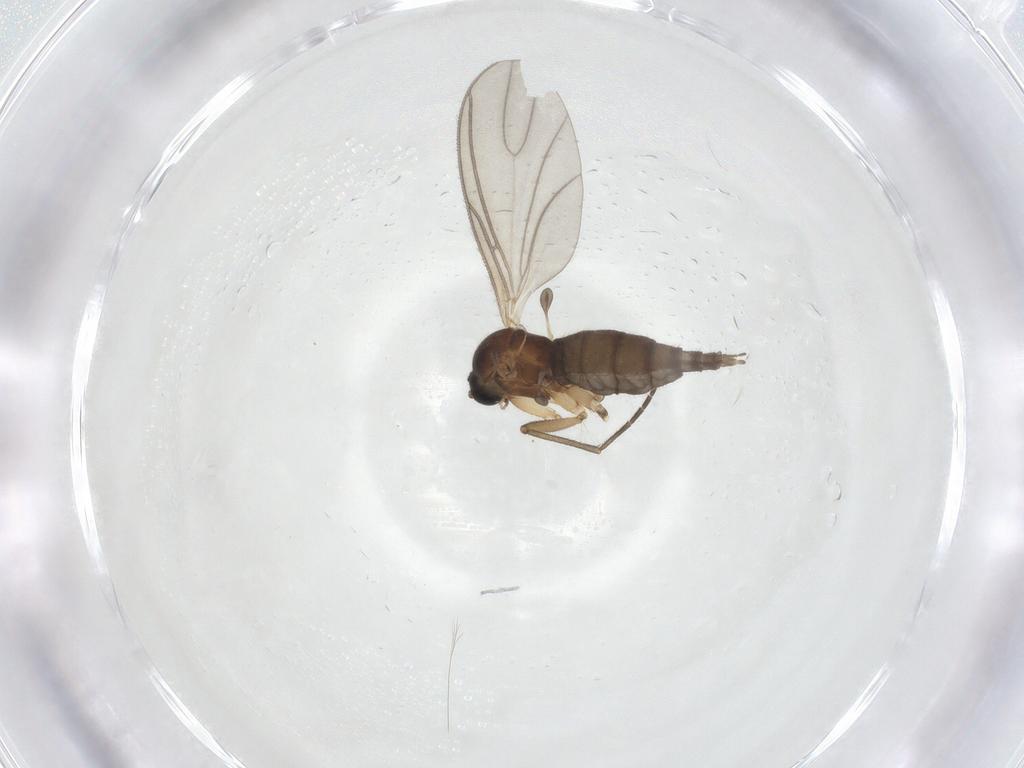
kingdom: Animalia
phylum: Arthropoda
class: Insecta
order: Diptera
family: Sciaridae
